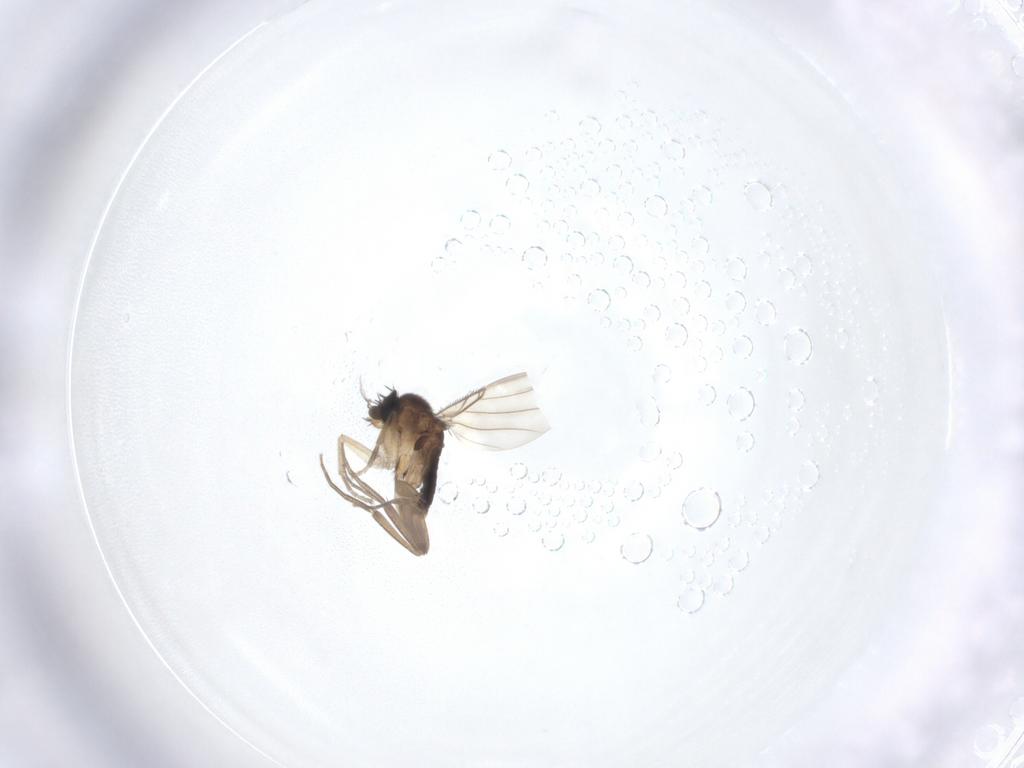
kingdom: Animalia
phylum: Arthropoda
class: Insecta
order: Diptera
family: Phoridae
